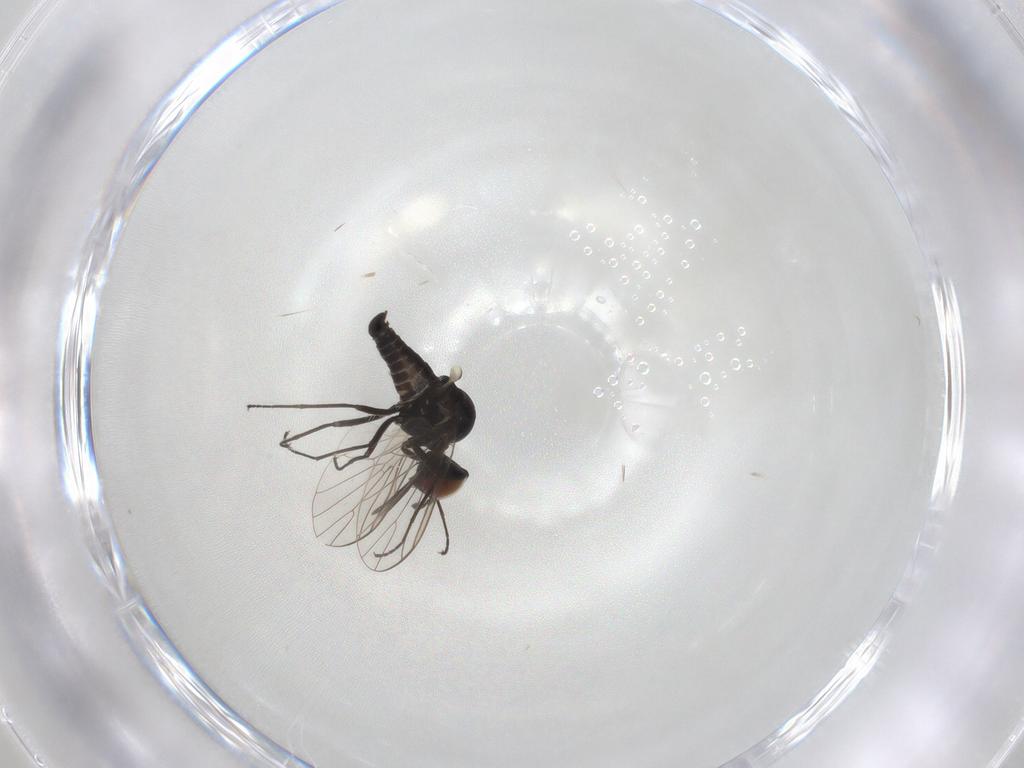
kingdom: Animalia
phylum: Arthropoda
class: Insecta
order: Diptera
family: Bombyliidae
